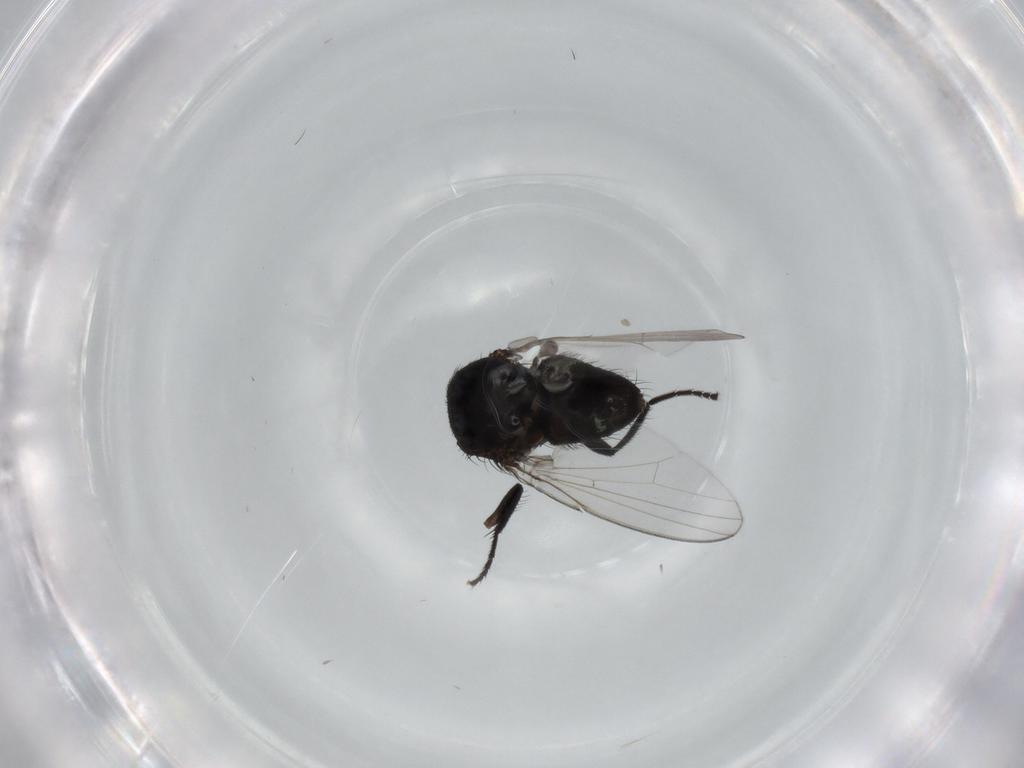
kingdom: Animalia
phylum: Arthropoda
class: Insecta
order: Diptera
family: Milichiidae
